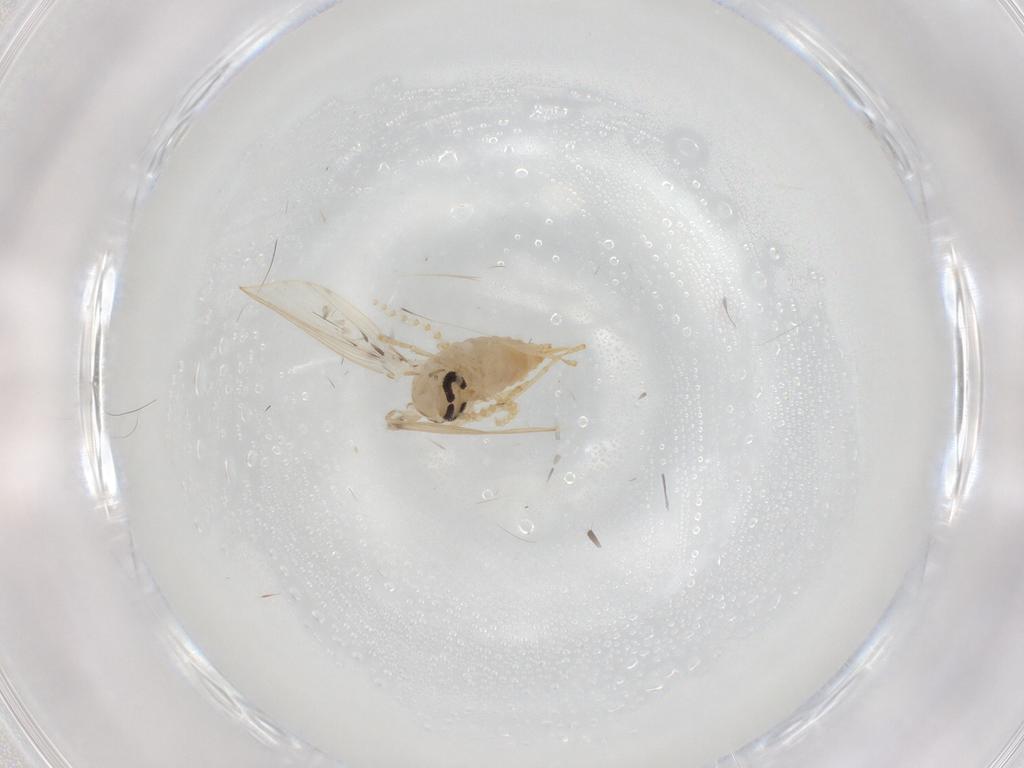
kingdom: Animalia
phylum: Arthropoda
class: Insecta
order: Diptera
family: Psychodidae
